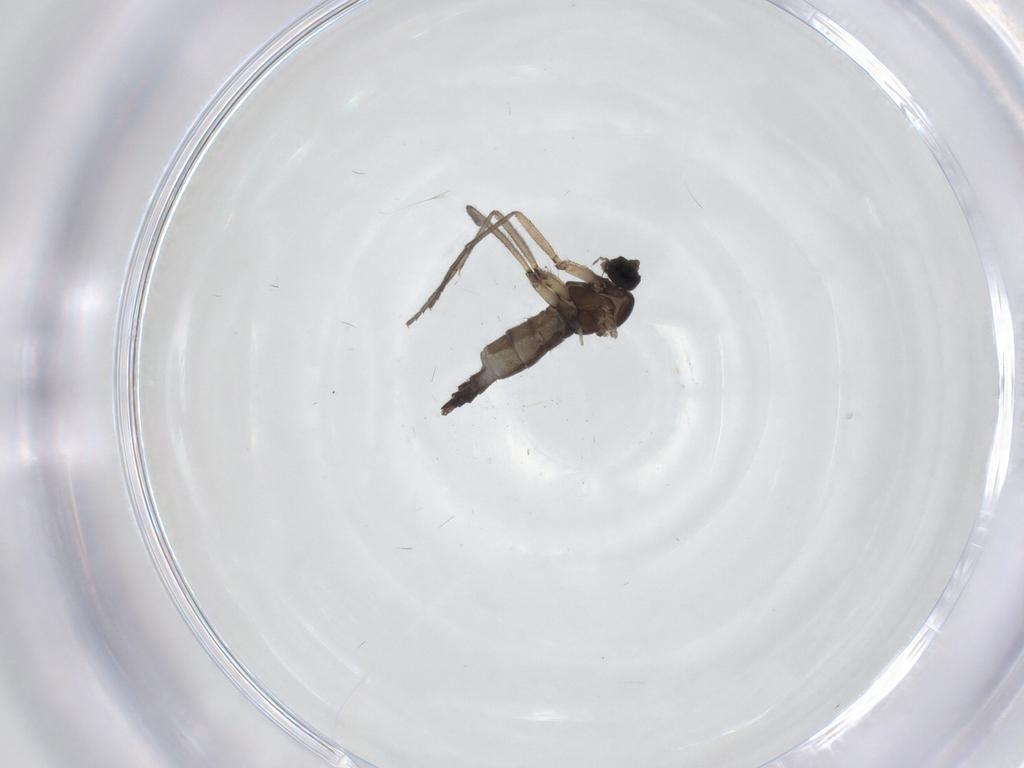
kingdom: Animalia
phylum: Arthropoda
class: Insecta
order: Diptera
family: Sciaridae
